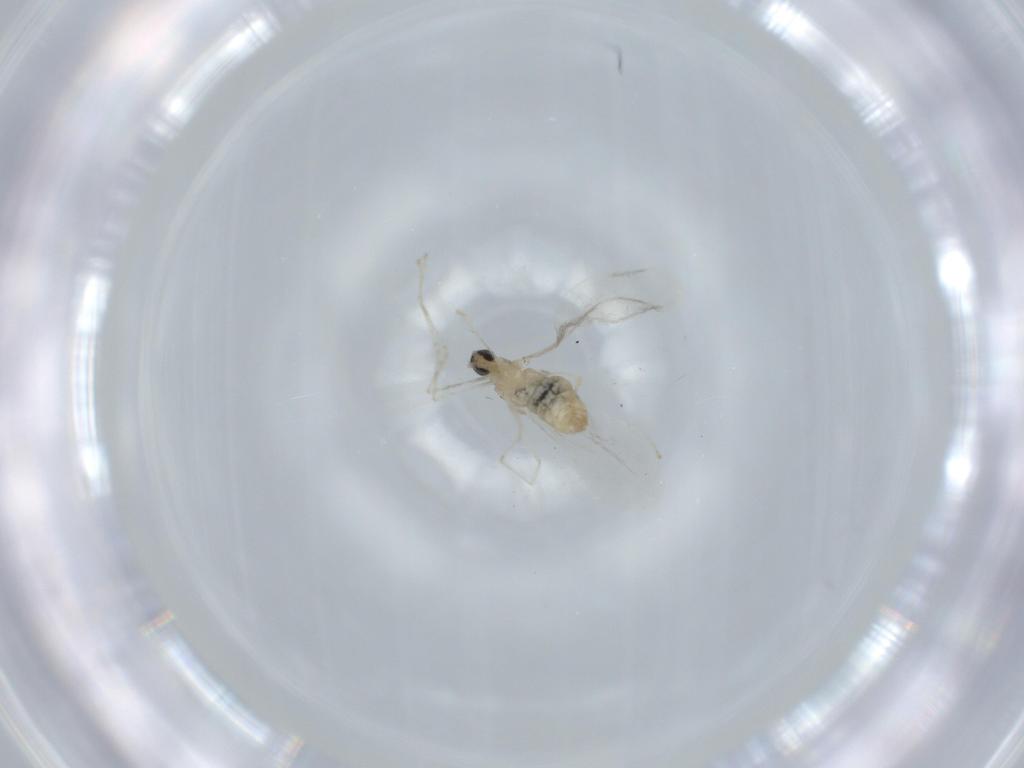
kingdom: Animalia
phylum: Arthropoda
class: Insecta
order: Diptera
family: Cecidomyiidae
